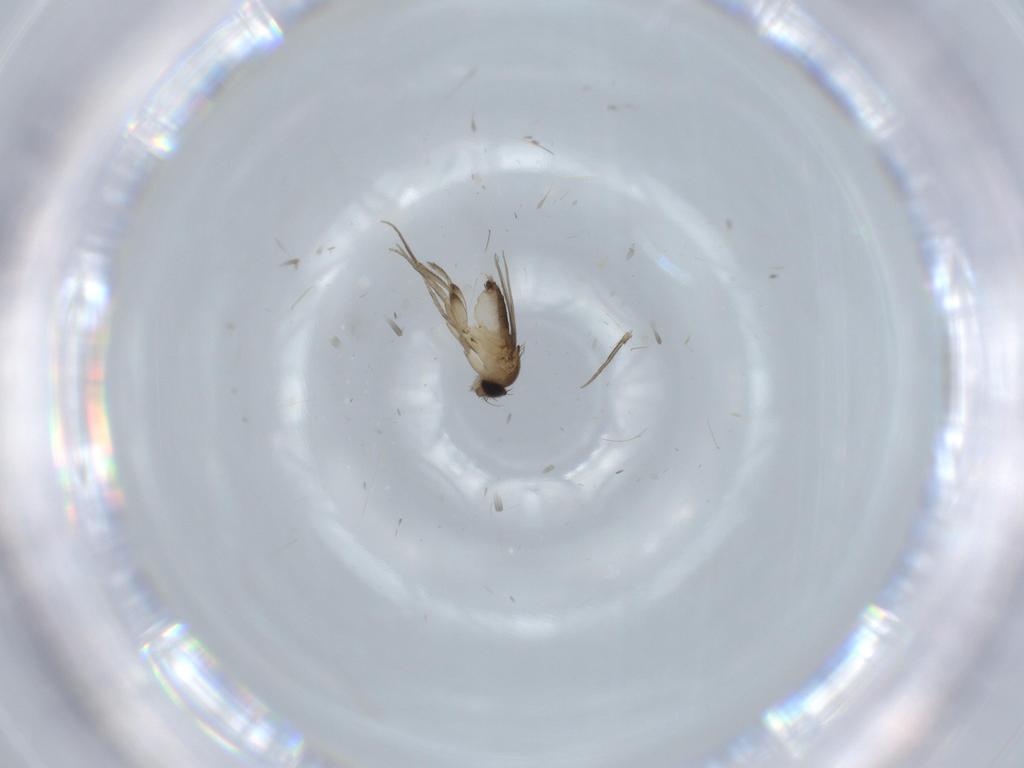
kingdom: Animalia
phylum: Arthropoda
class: Insecta
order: Diptera
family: Phoridae
